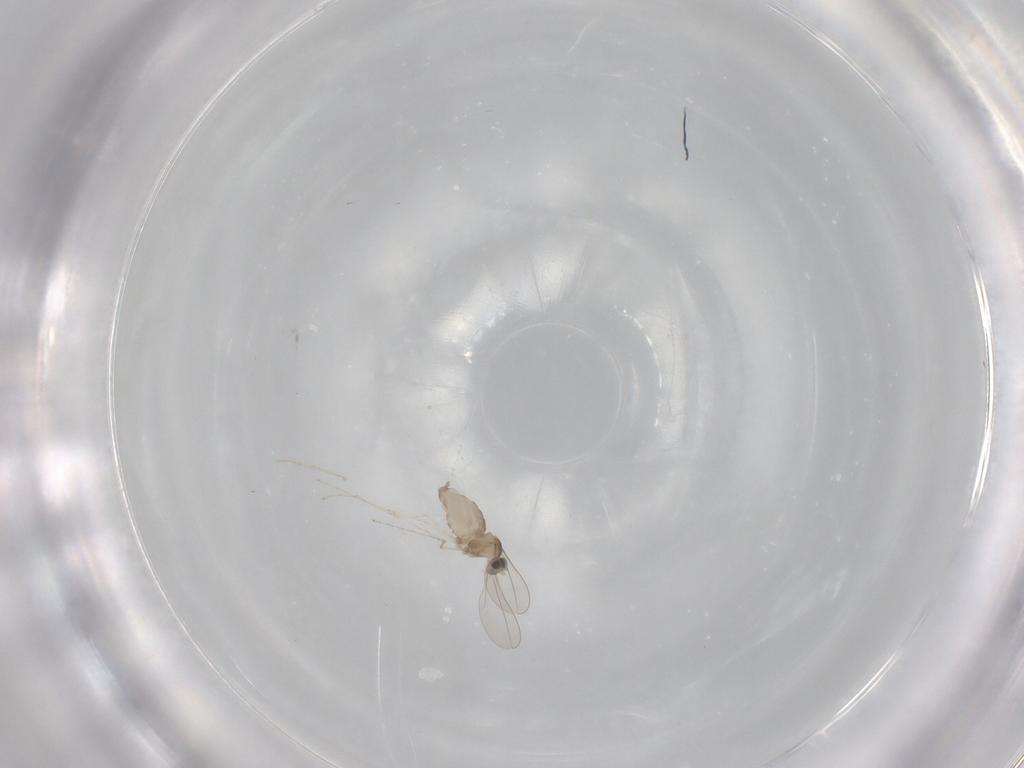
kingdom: Animalia
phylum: Arthropoda
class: Insecta
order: Diptera
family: Cecidomyiidae
